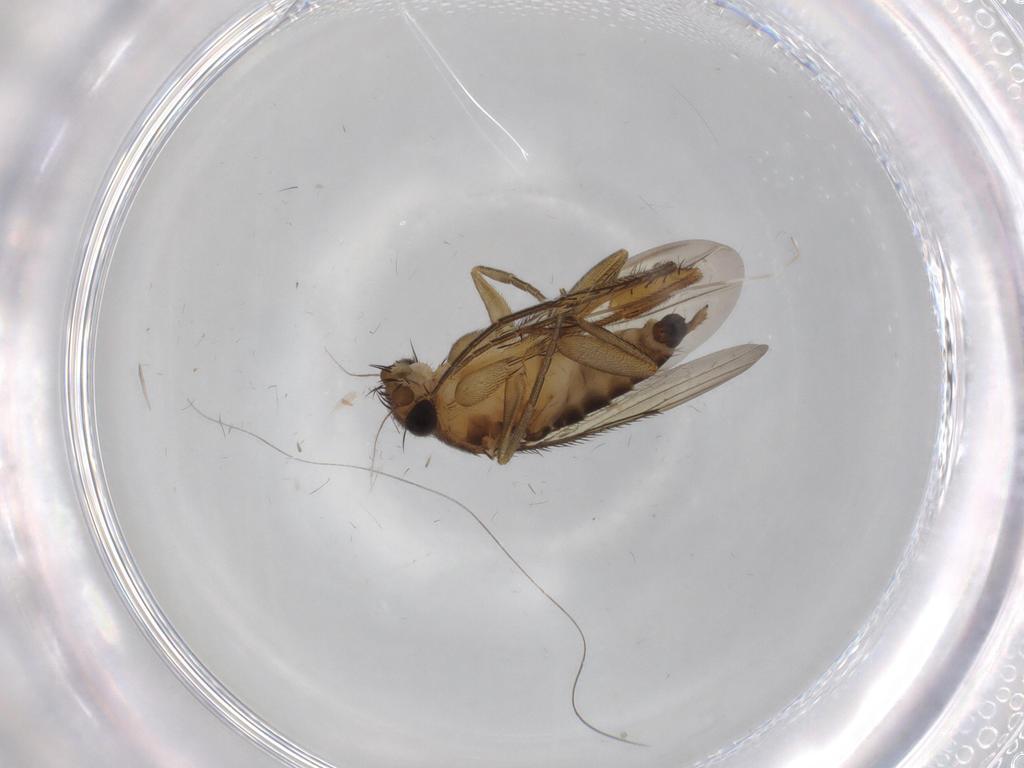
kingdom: Animalia
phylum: Arthropoda
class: Insecta
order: Diptera
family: Phoridae
